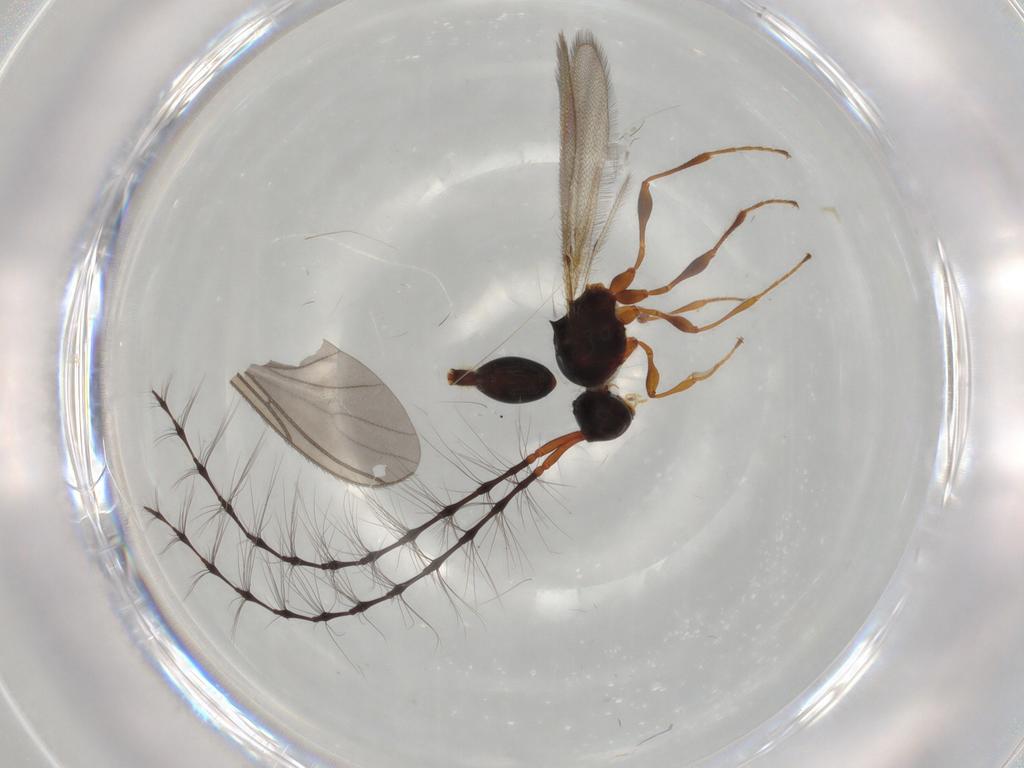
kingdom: Animalia
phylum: Arthropoda
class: Insecta
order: Hymenoptera
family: Diapriidae
